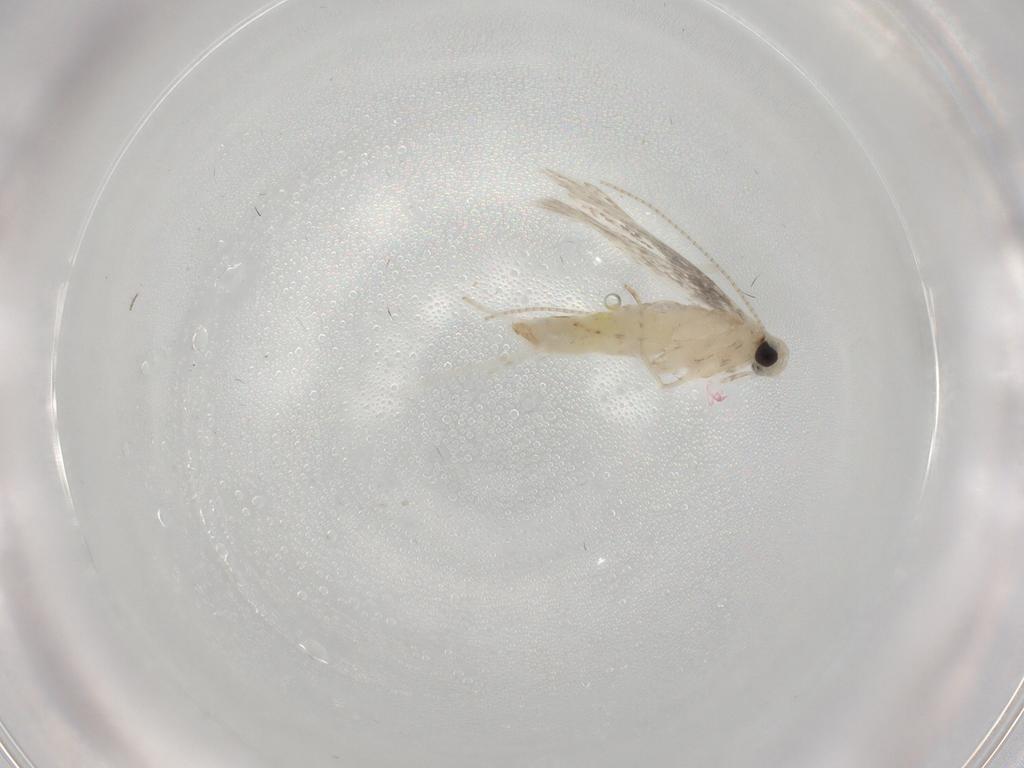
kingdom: Animalia
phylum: Arthropoda
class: Insecta
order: Lepidoptera
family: Gracillariidae
